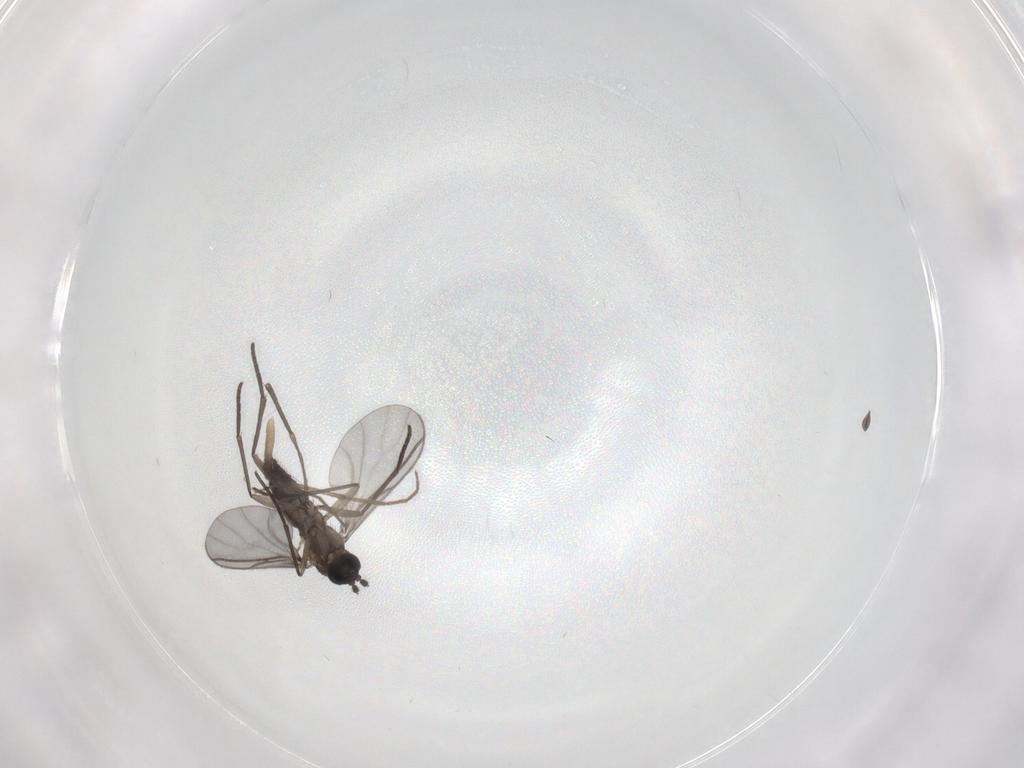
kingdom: Animalia
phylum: Arthropoda
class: Insecta
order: Diptera
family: Chironomidae
